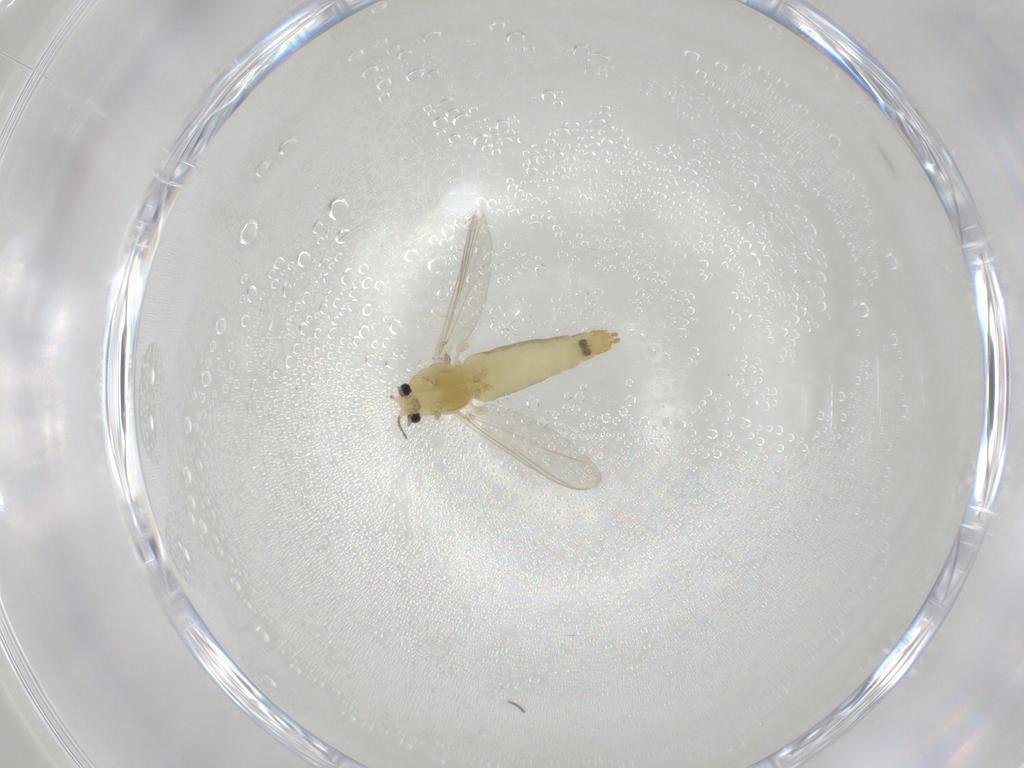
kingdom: Animalia
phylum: Arthropoda
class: Insecta
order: Diptera
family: Chironomidae
